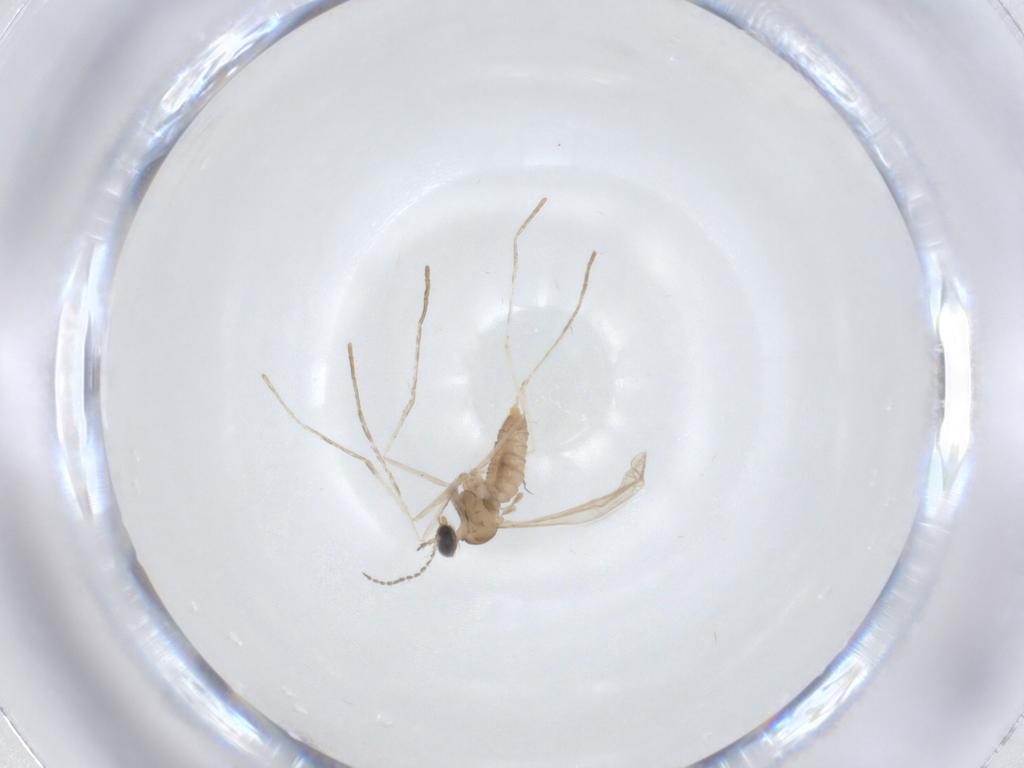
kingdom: Animalia
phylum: Arthropoda
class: Insecta
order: Diptera
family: Cecidomyiidae
